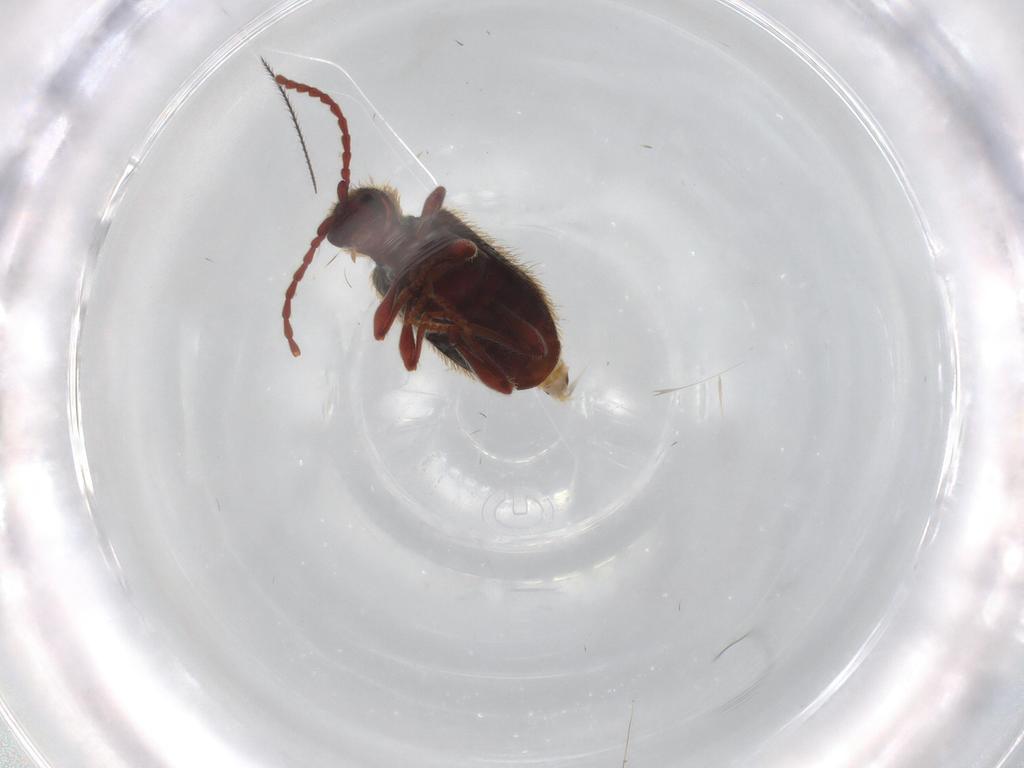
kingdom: Animalia
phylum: Arthropoda
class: Insecta
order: Coleoptera
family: Ptinidae
